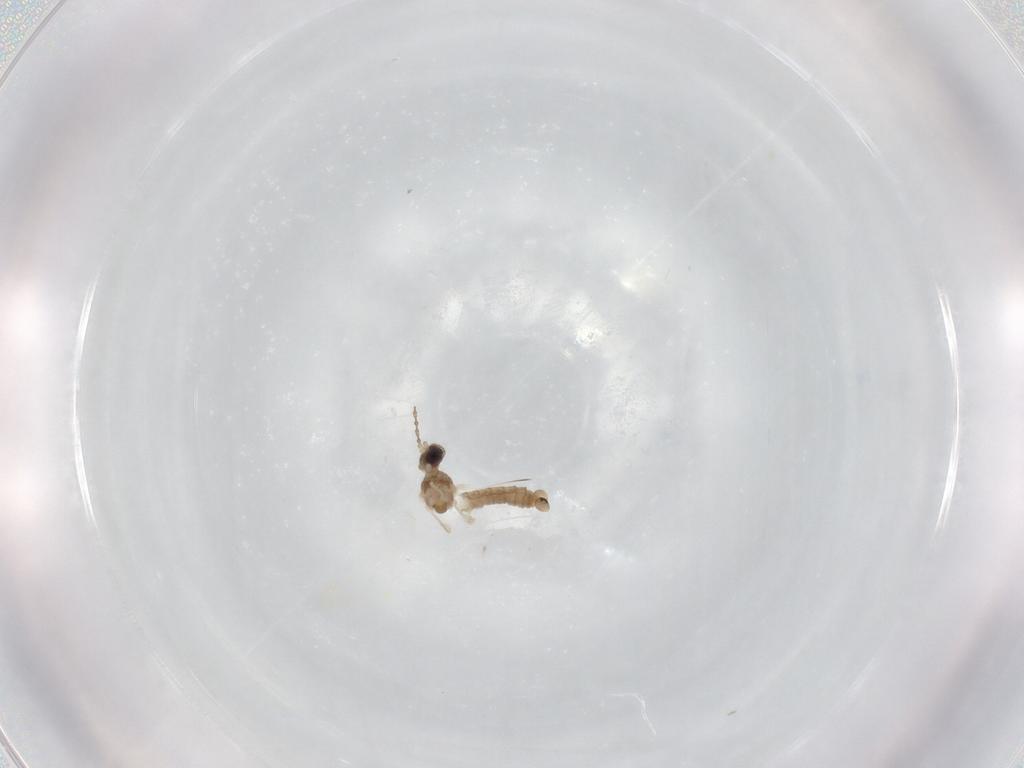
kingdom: Animalia
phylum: Arthropoda
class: Insecta
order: Diptera
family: Cecidomyiidae
